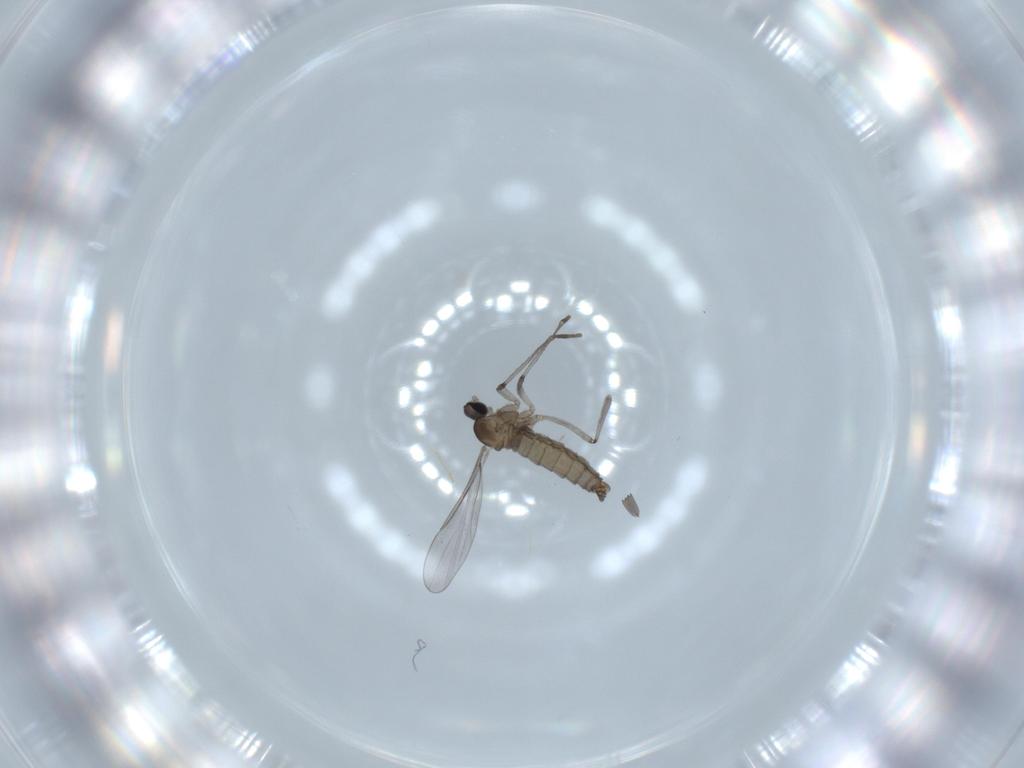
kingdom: Animalia
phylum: Arthropoda
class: Insecta
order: Diptera
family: Cecidomyiidae
